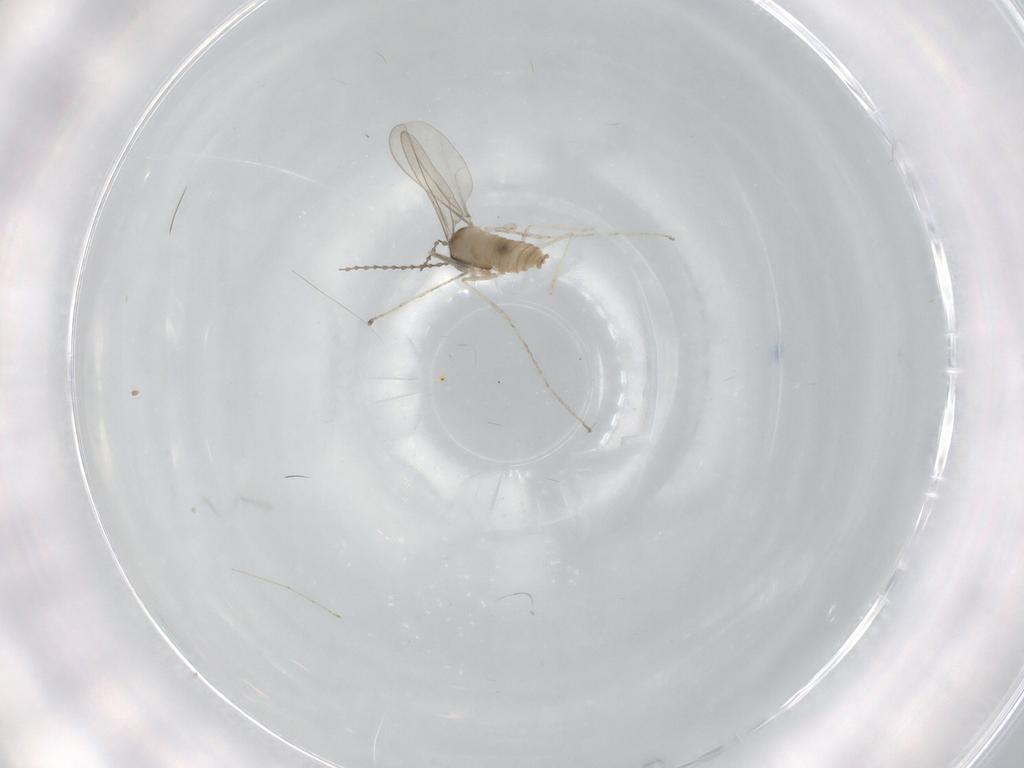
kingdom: Animalia
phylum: Arthropoda
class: Insecta
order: Diptera
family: Cecidomyiidae
